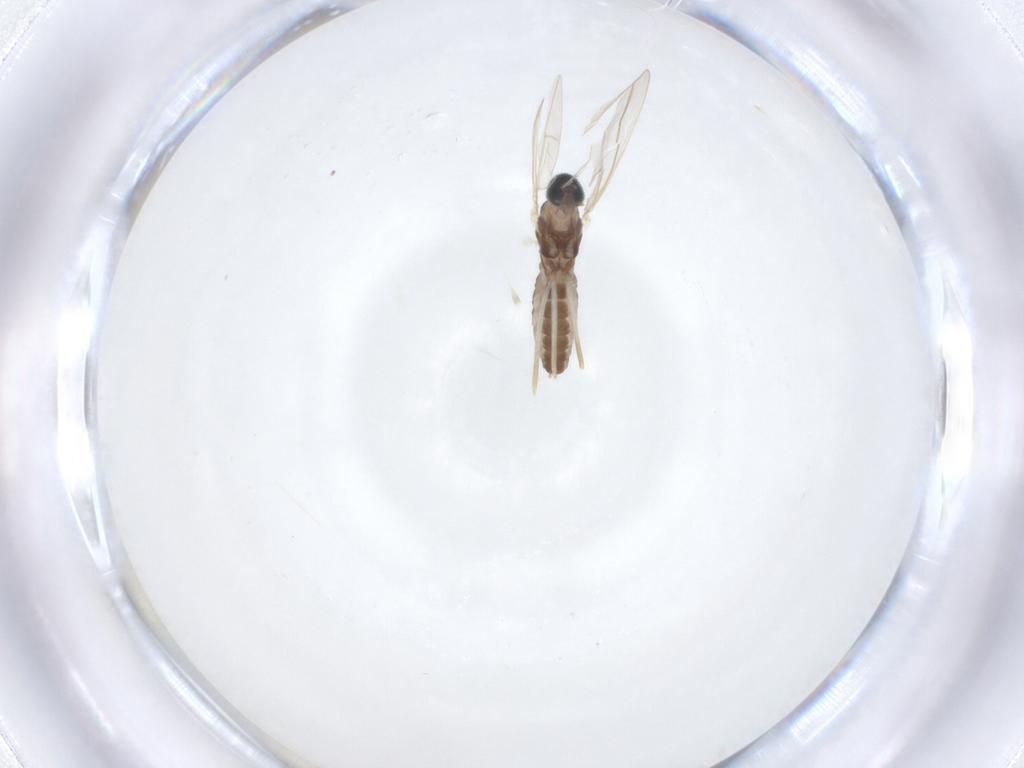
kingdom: Animalia
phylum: Arthropoda
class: Insecta
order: Diptera
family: Cecidomyiidae
